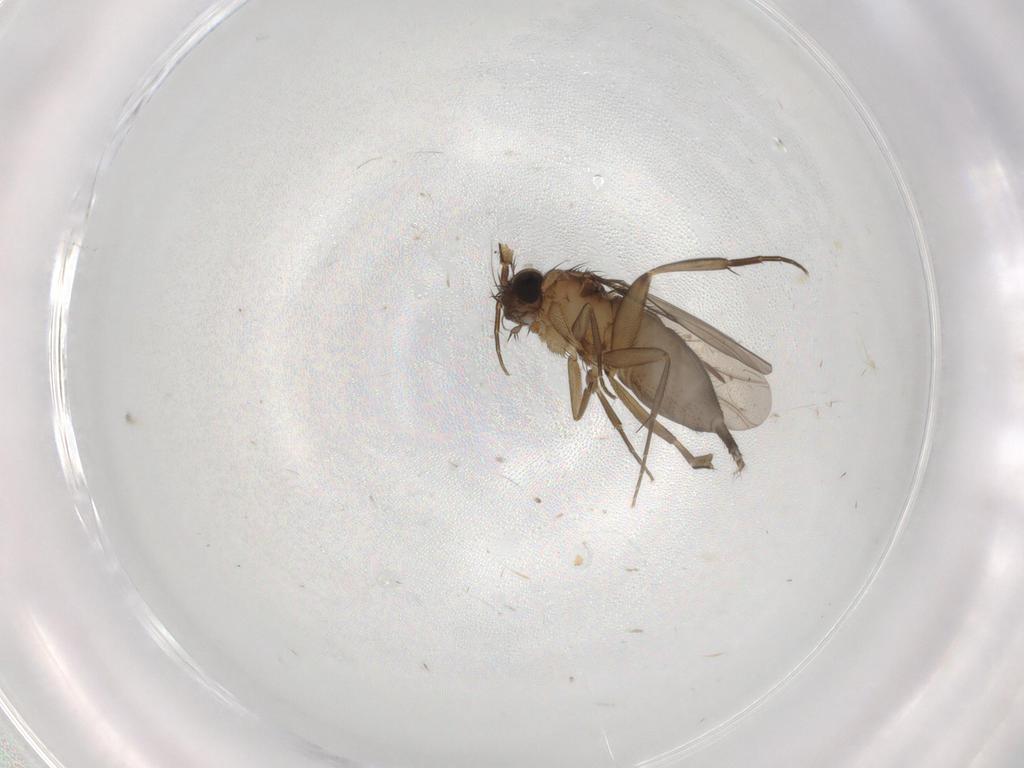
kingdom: Animalia
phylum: Arthropoda
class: Insecta
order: Diptera
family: Phoridae
